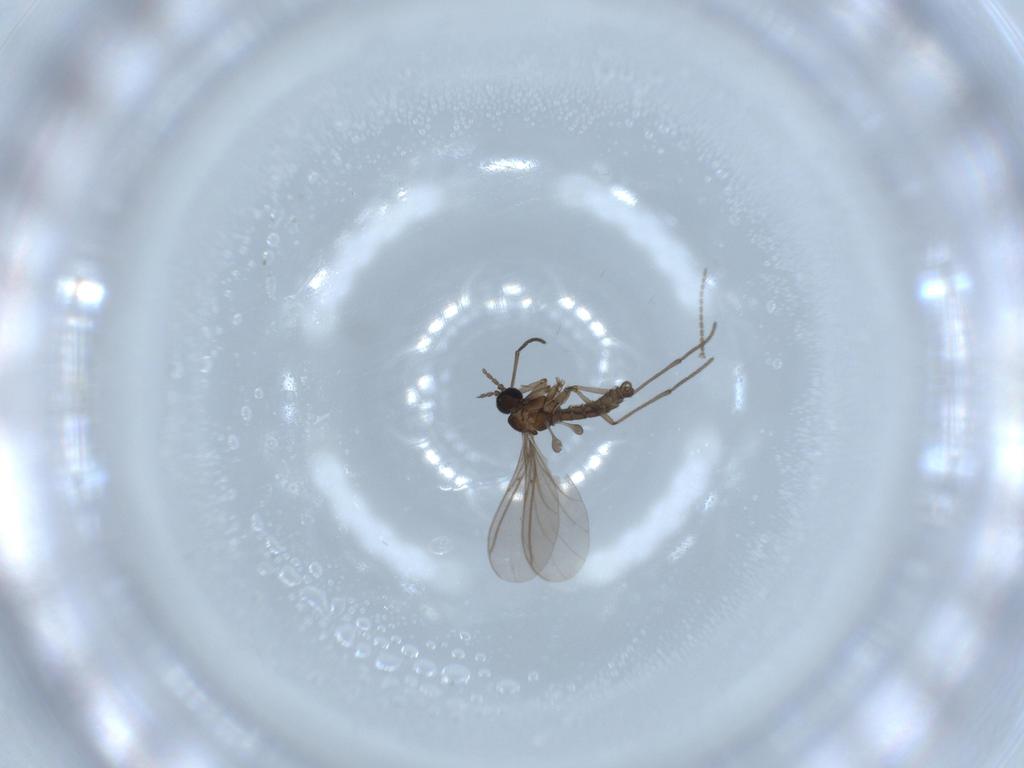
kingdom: Animalia
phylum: Arthropoda
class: Insecta
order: Diptera
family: Sciaridae
